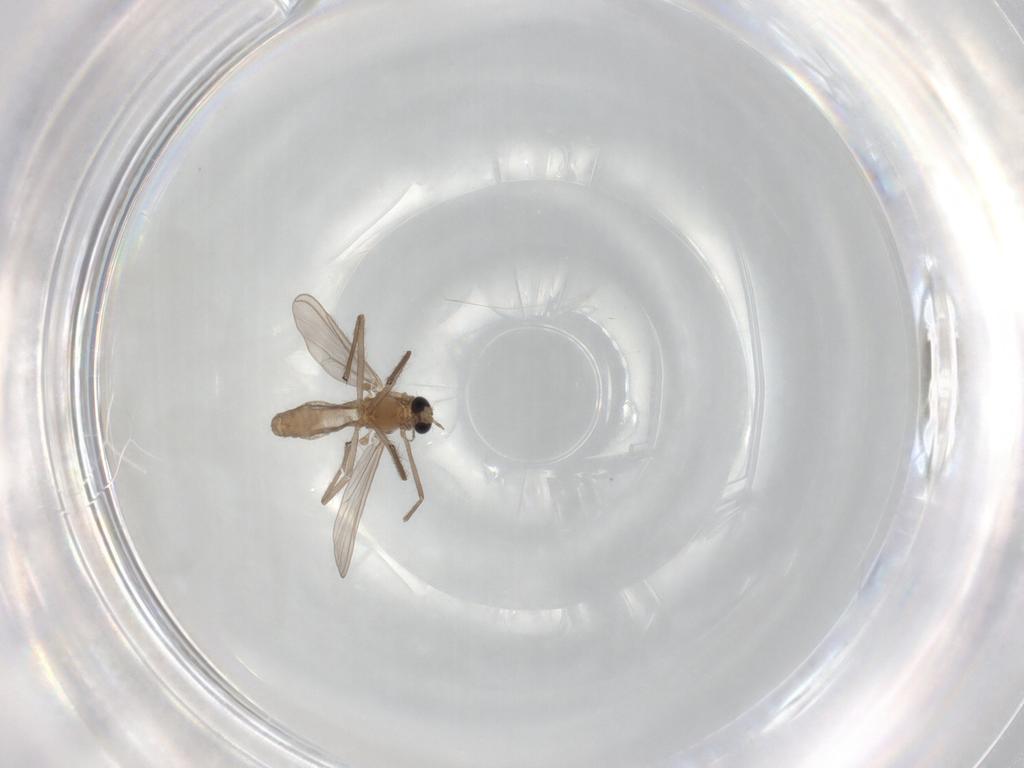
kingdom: Animalia
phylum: Arthropoda
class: Insecta
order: Diptera
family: Chironomidae
